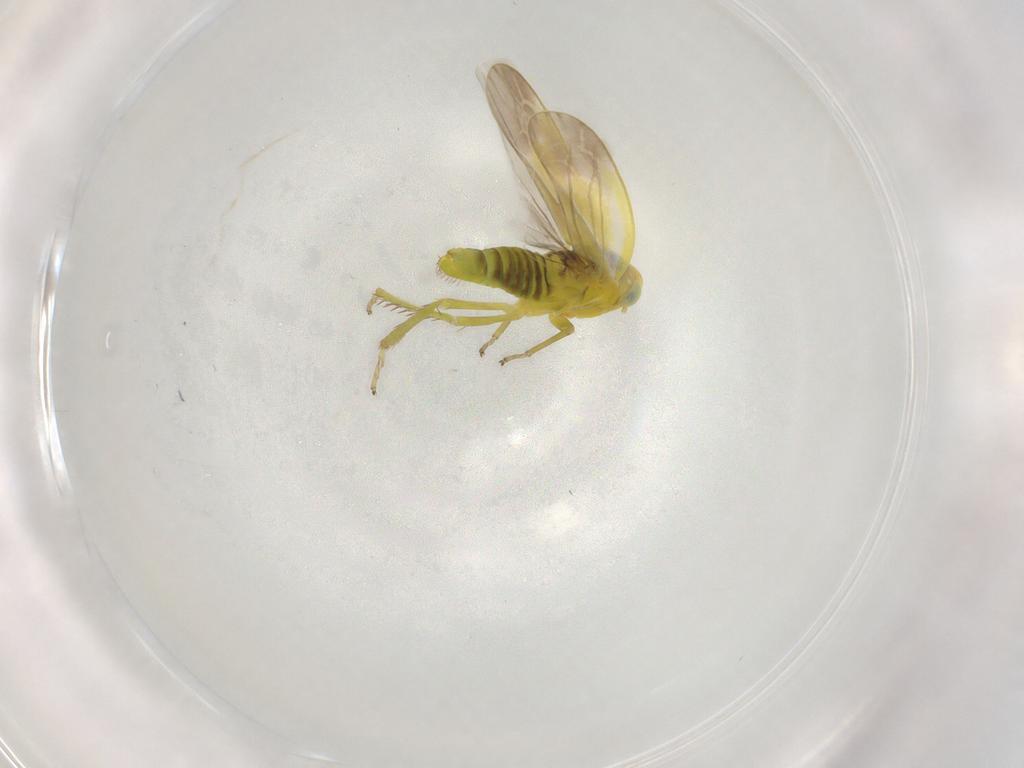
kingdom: Animalia
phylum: Arthropoda
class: Insecta
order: Hemiptera
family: Cicadellidae
